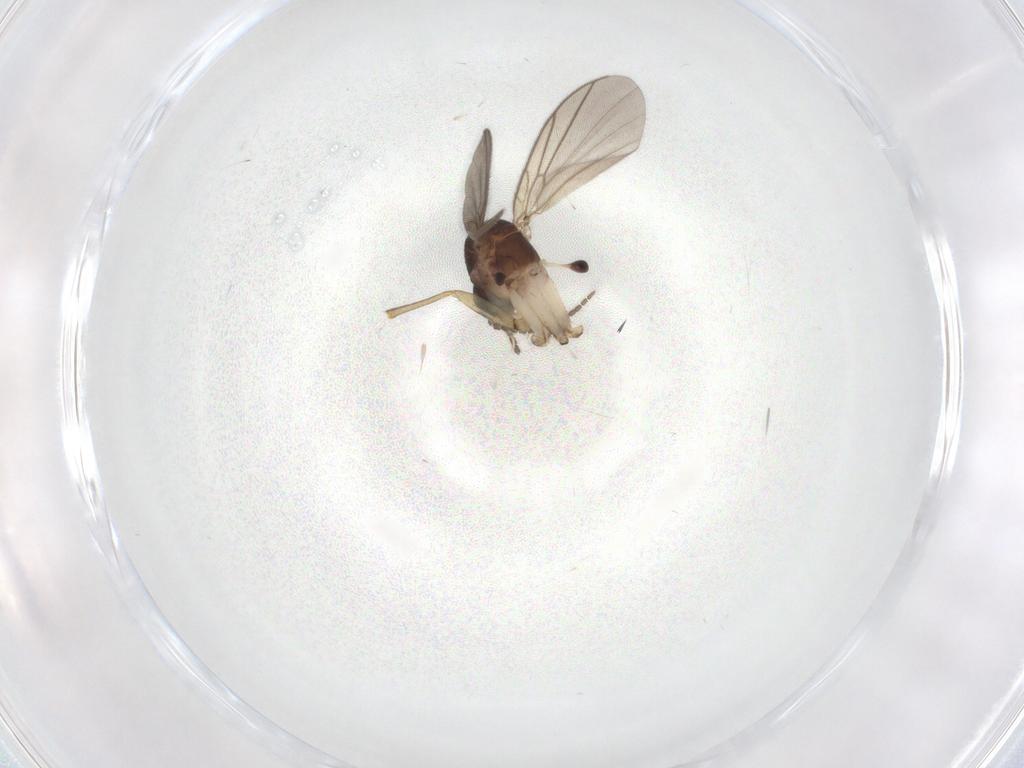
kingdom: Animalia
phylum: Arthropoda
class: Insecta
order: Diptera
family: Mycetophilidae
